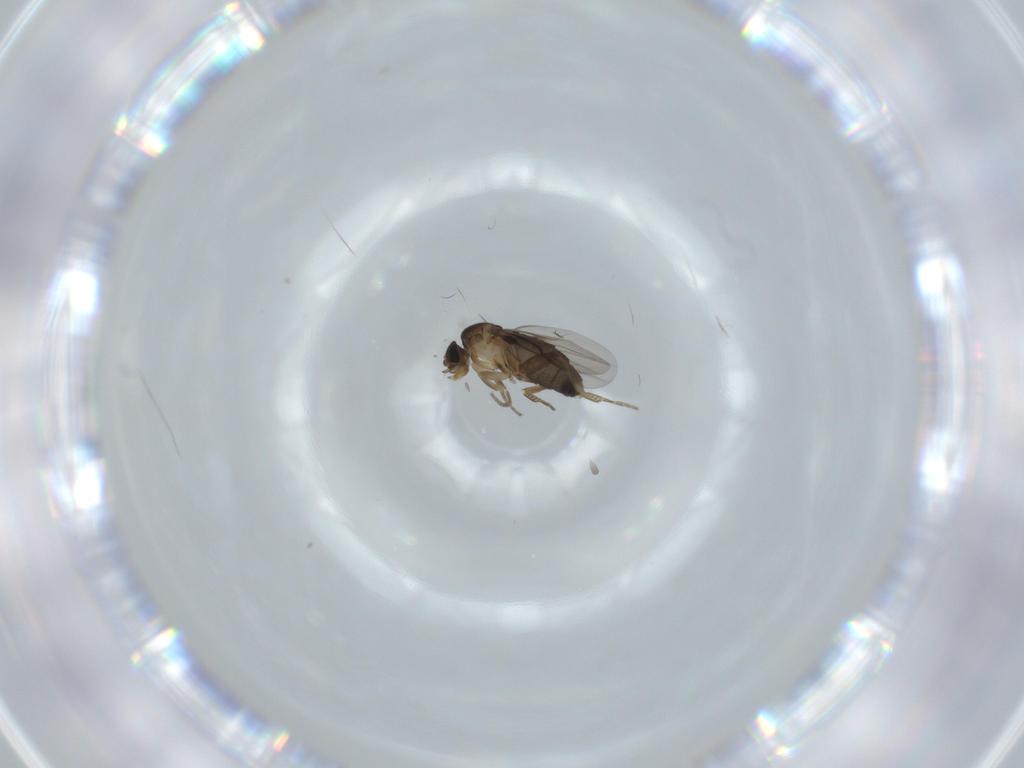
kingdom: Animalia
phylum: Arthropoda
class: Insecta
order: Diptera
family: Phoridae
